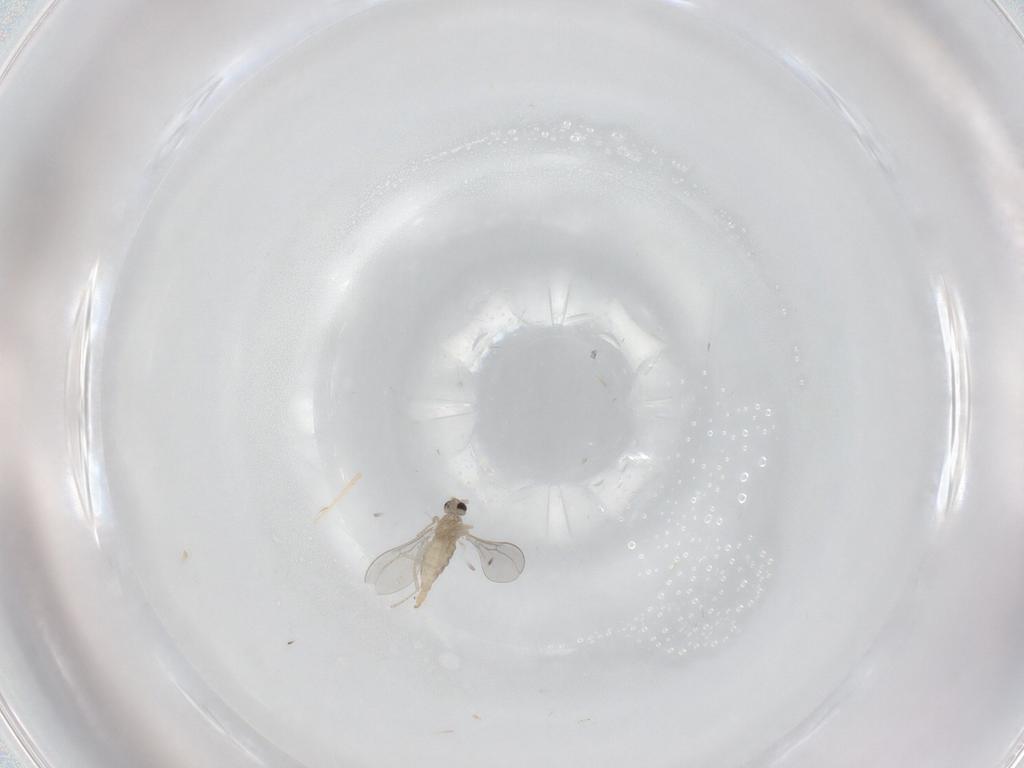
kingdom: Animalia
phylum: Arthropoda
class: Insecta
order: Diptera
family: Cecidomyiidae
